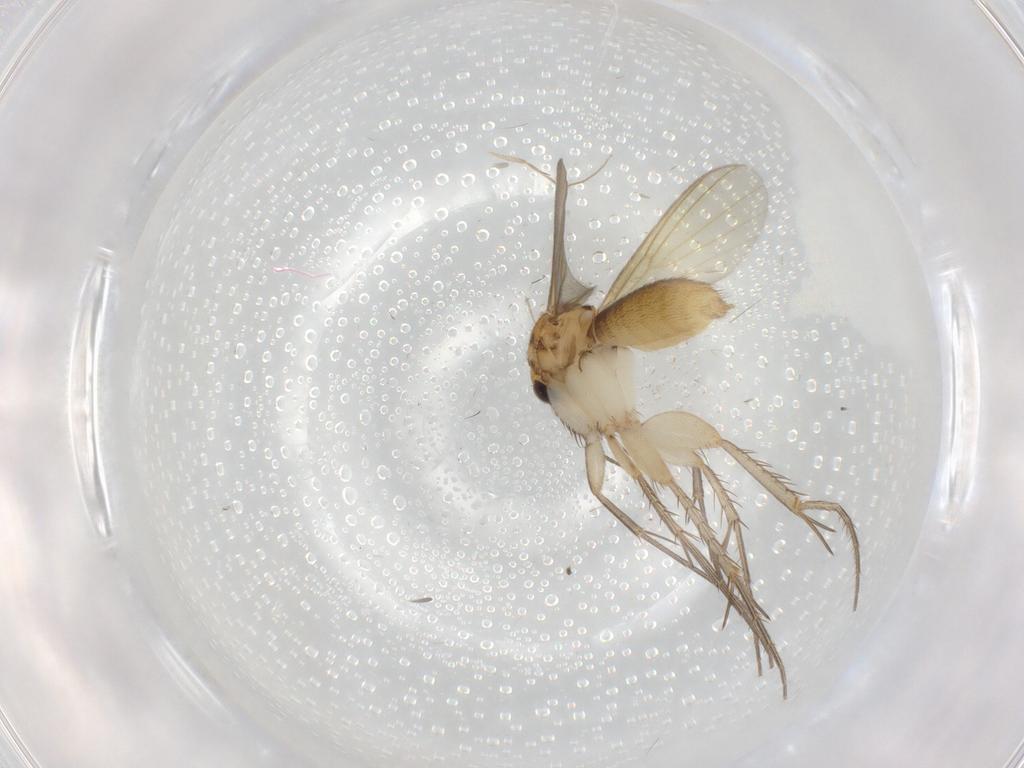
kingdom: Animalia
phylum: Arthropoda
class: Insecta
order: Diptera
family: Mycetophilidae
